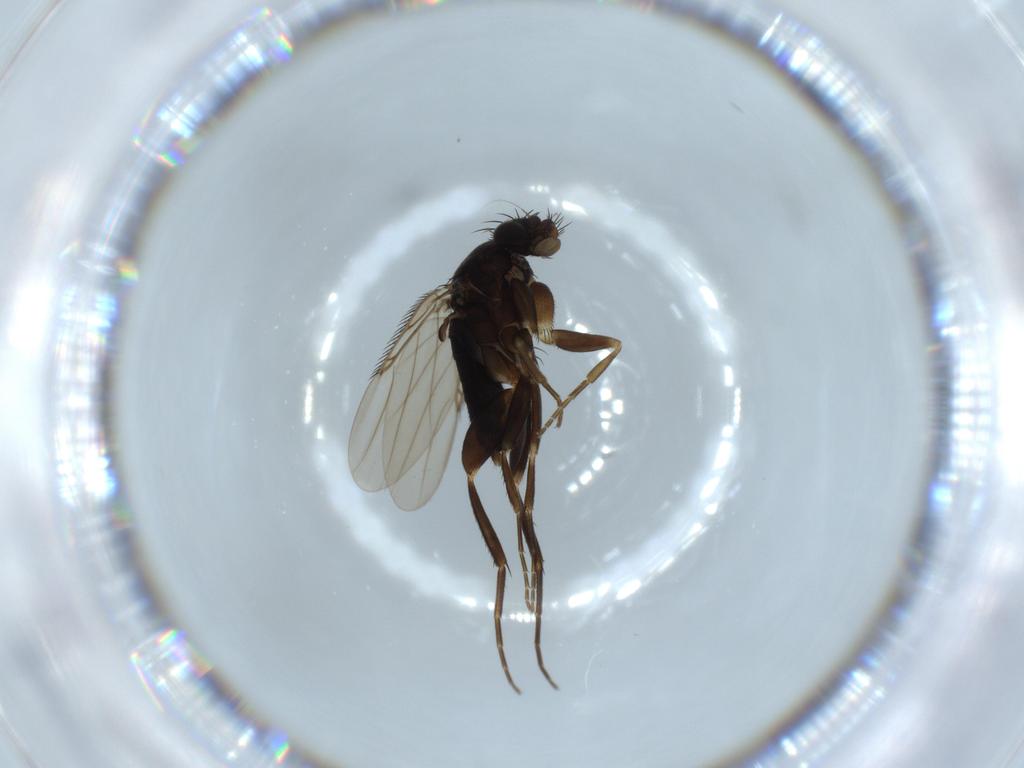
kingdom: Animalia
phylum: Arthropoda
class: Insecta
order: Diptera
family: Phoridae
